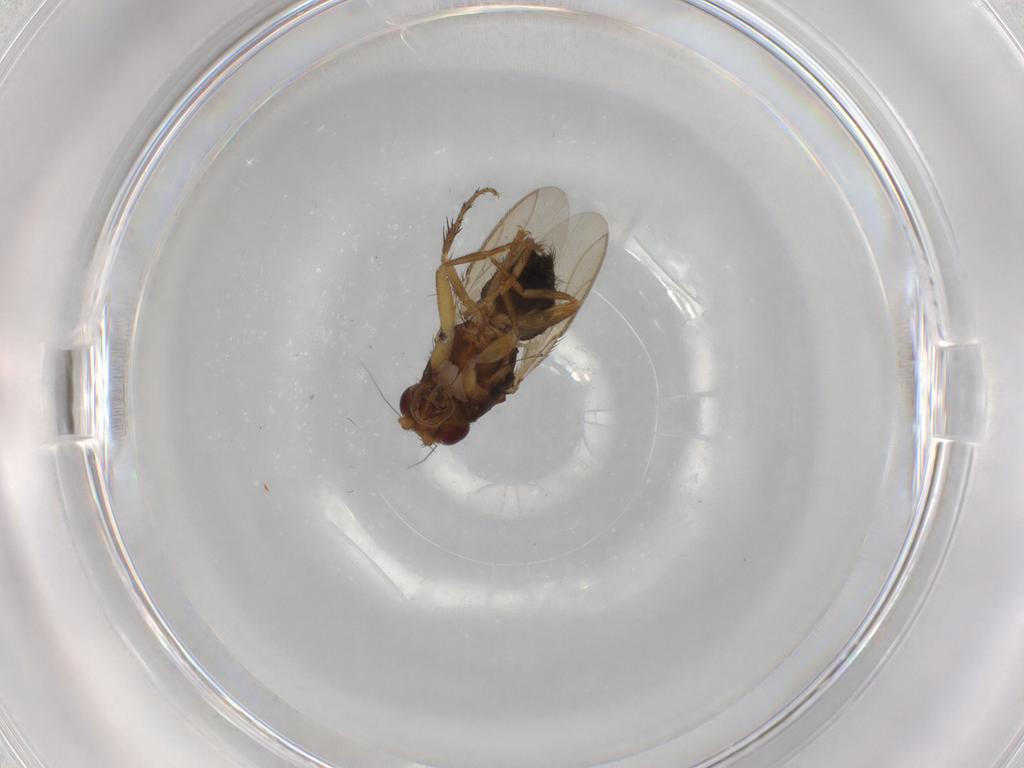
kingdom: Animalia
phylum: Arthropoda
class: Insecta
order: Diptera
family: Sphaeroceridae
